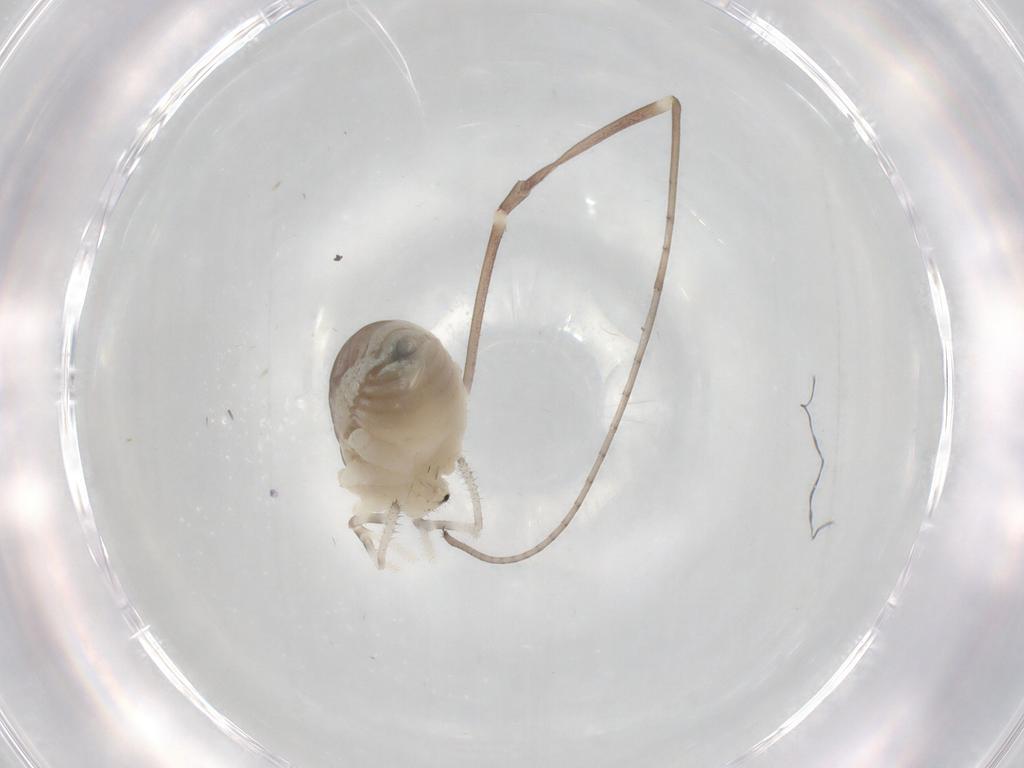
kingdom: Animalia
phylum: Arthropoda
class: Arachnida
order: Opiliones
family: Sclerosomatidae
